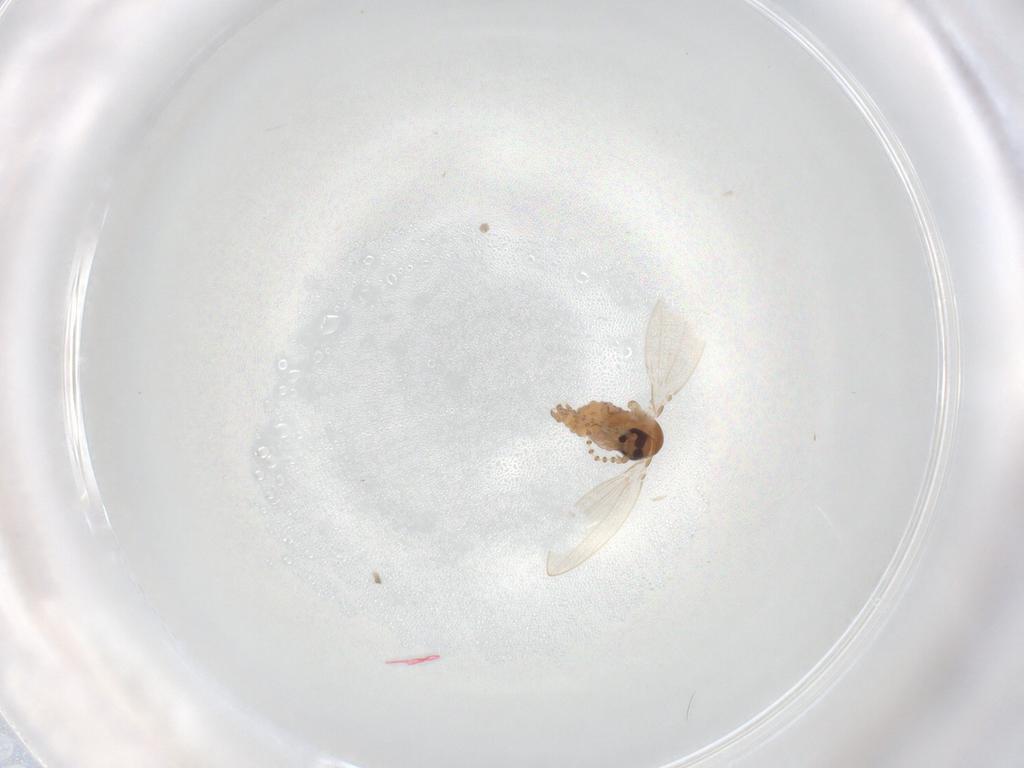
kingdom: Animalia
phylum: Arthropoda
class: Insecta
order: Diptera
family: Psychodidae
